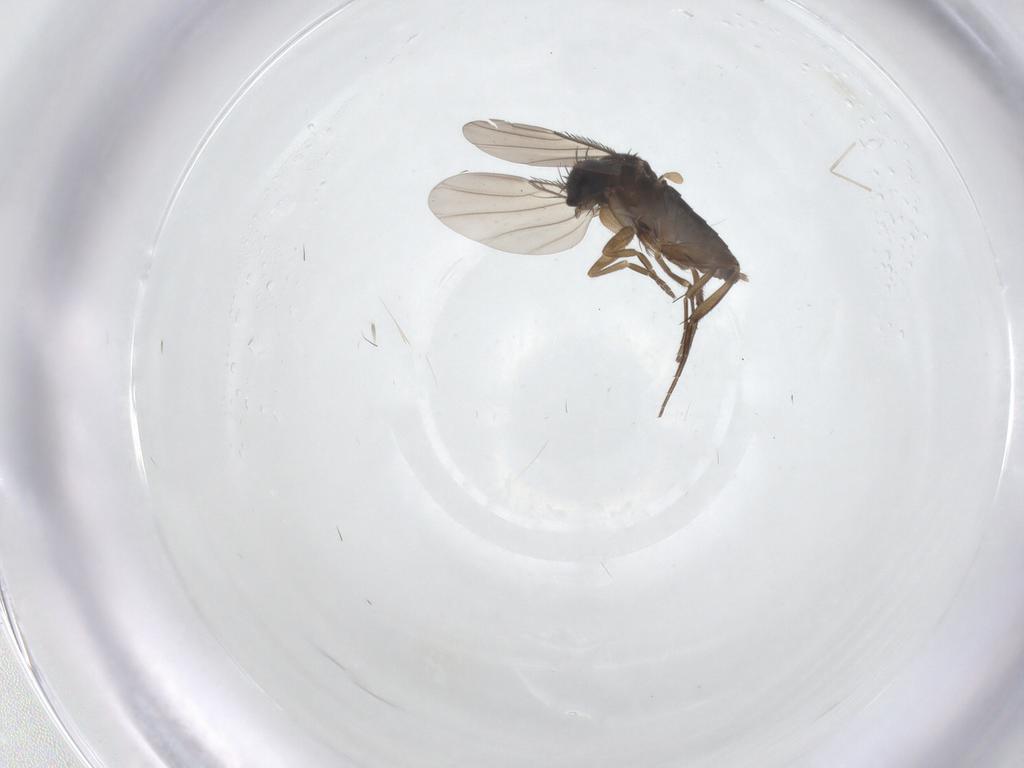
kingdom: Animalia
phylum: Arthropoda
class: Insecta
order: Diptera
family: Phoridae
